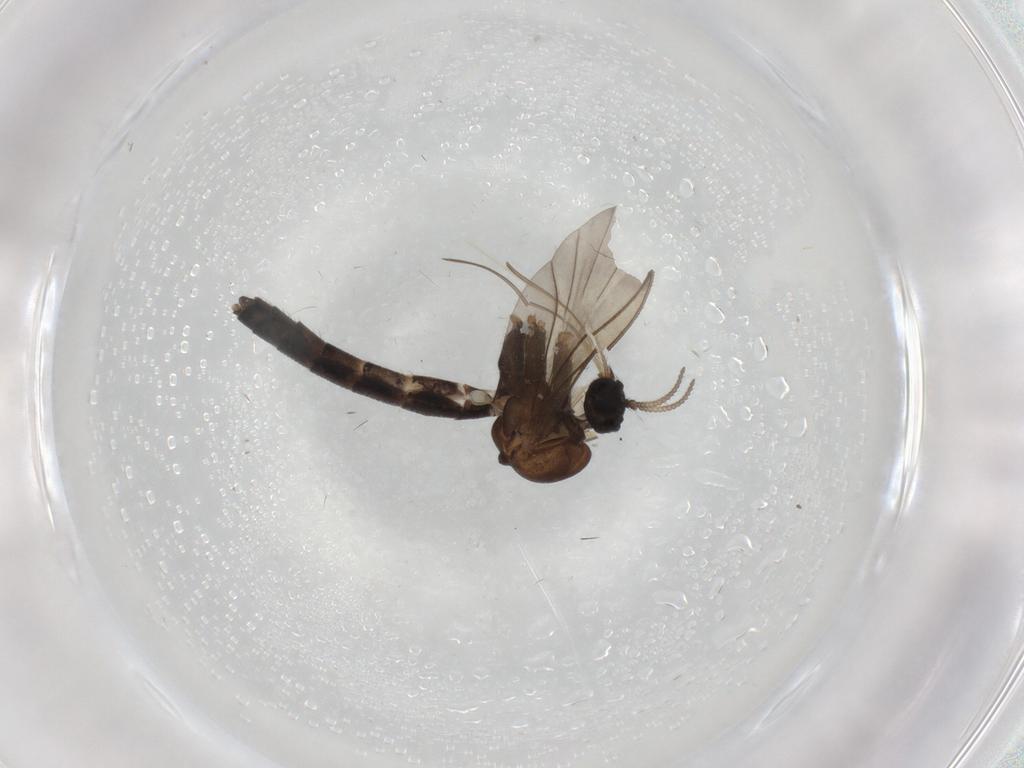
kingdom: Animalia
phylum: Arthropoda
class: Insecta
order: Diptera
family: Keroplatidae
